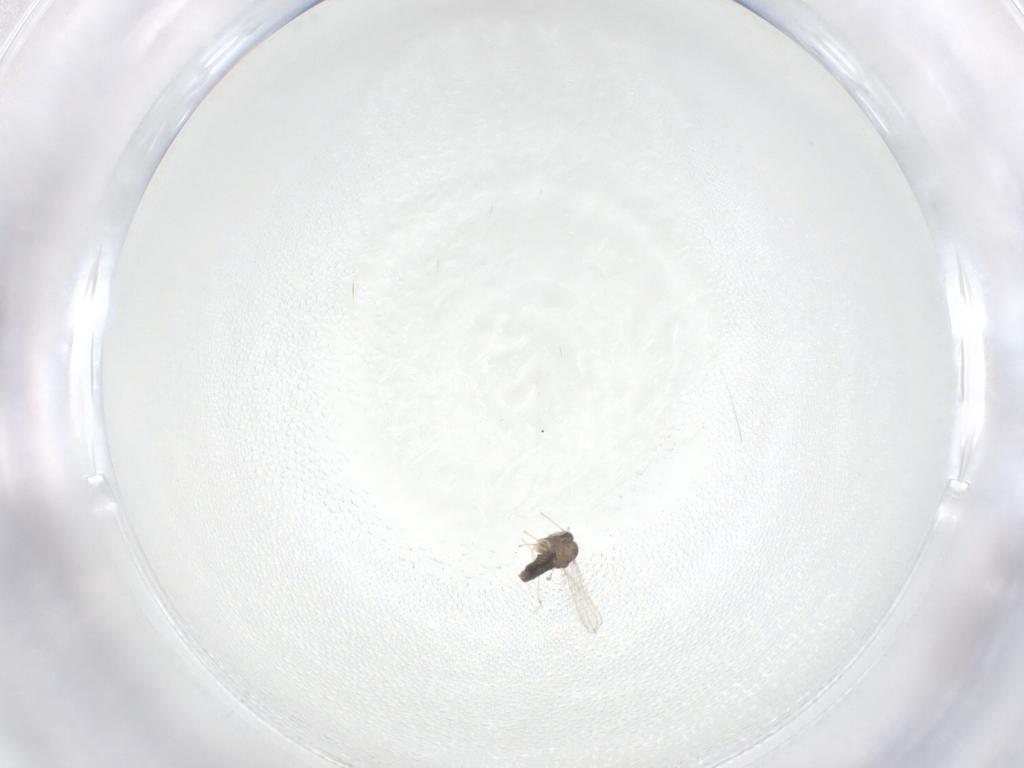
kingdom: Animalia
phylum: Arthropoda
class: Insecta
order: Diptera
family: Chironomidae
